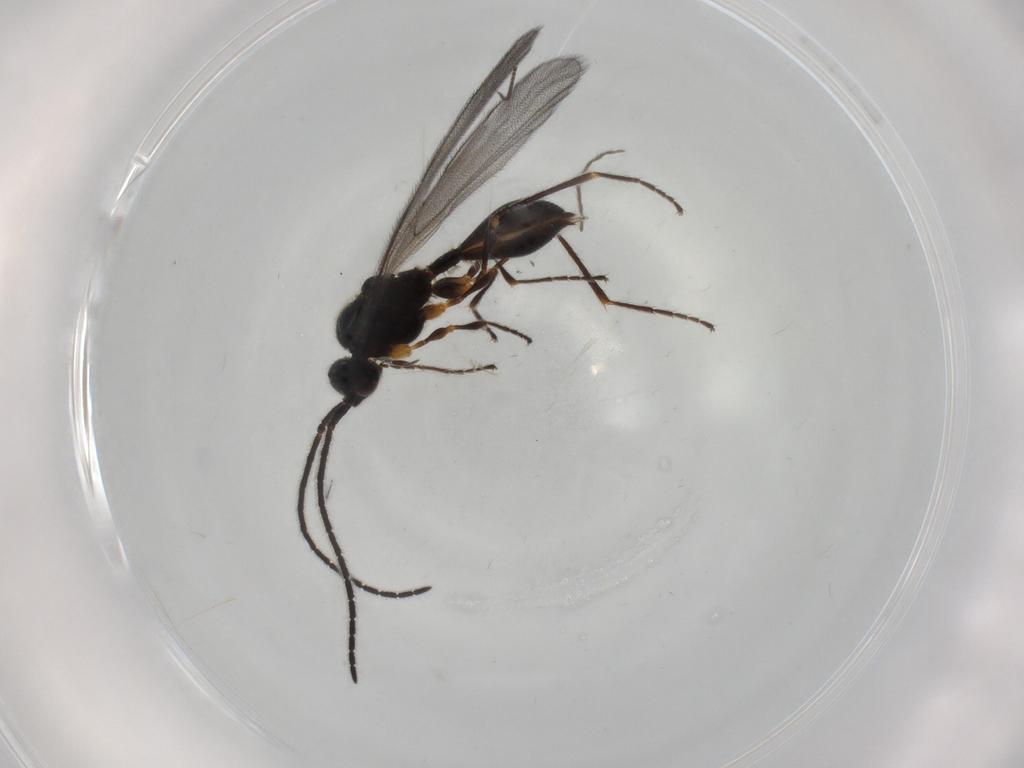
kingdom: Animalia
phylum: Arthropoda
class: Insecta
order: Hymenoptera
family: Diapriidae
